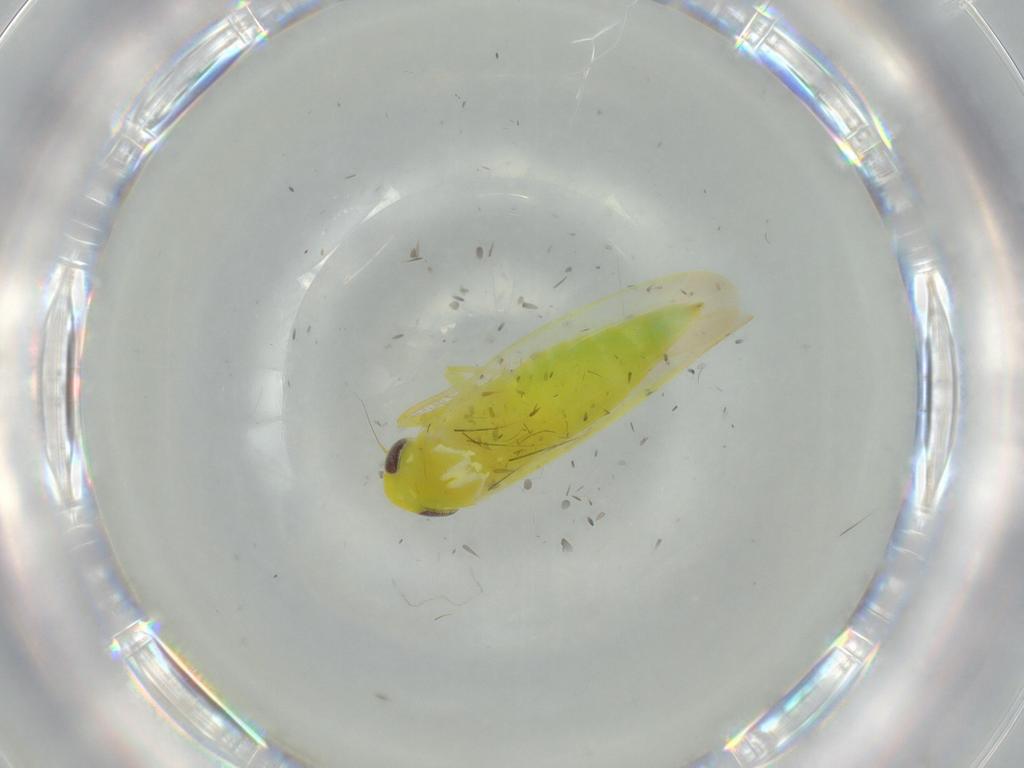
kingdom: Animalia
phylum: Arthropoda
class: Insecta
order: Hemiptera
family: Cicadellidae
